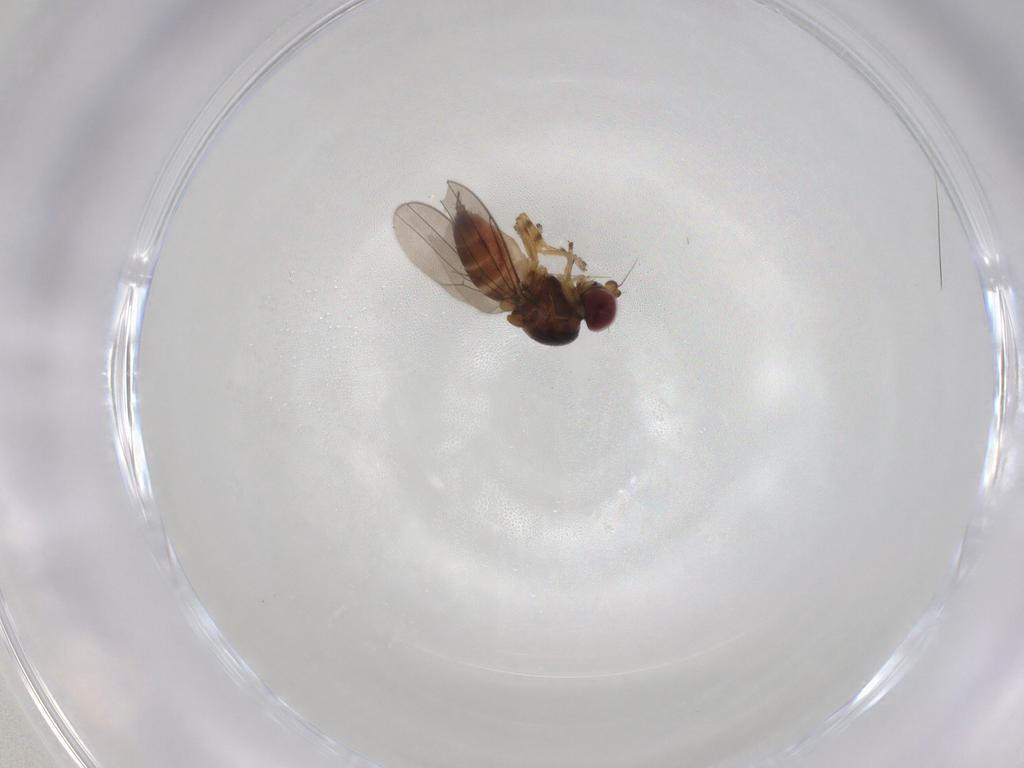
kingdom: Animalia
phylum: Arthropoda
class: Insecta
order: Diptera
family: Chloropidae
